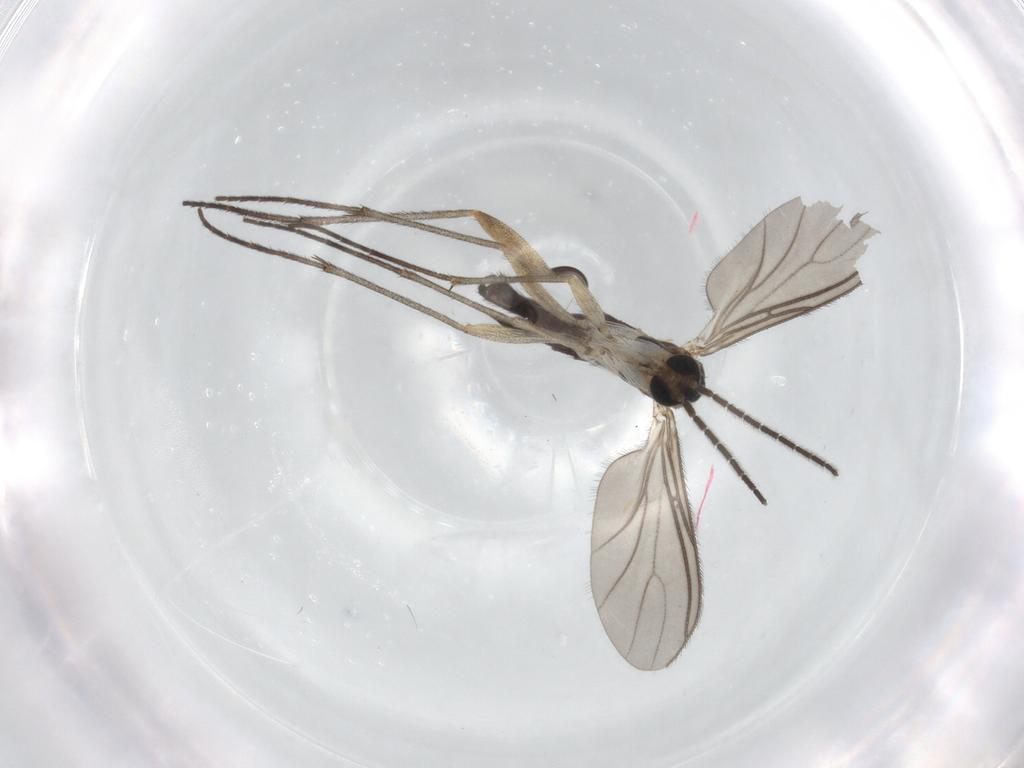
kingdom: Animalia
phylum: Arthropoda
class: Insecta
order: Diptera
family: Sciaridae
